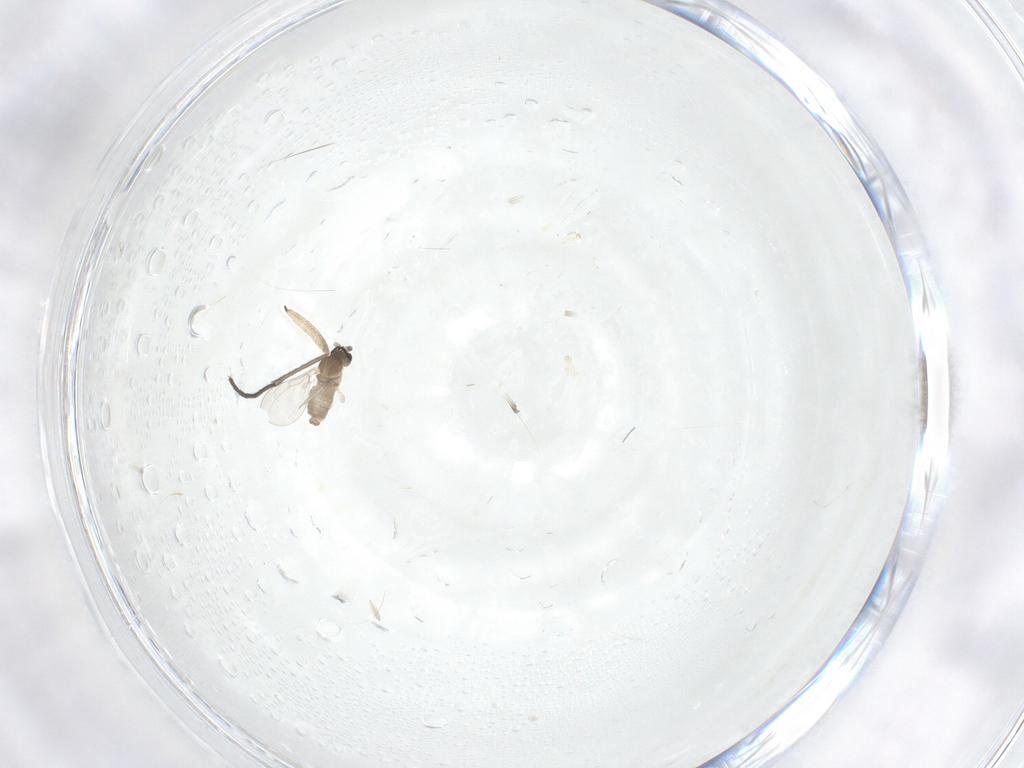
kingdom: Animalia
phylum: Arthropoda
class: Insecta
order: Diptera
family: Sciaridae
